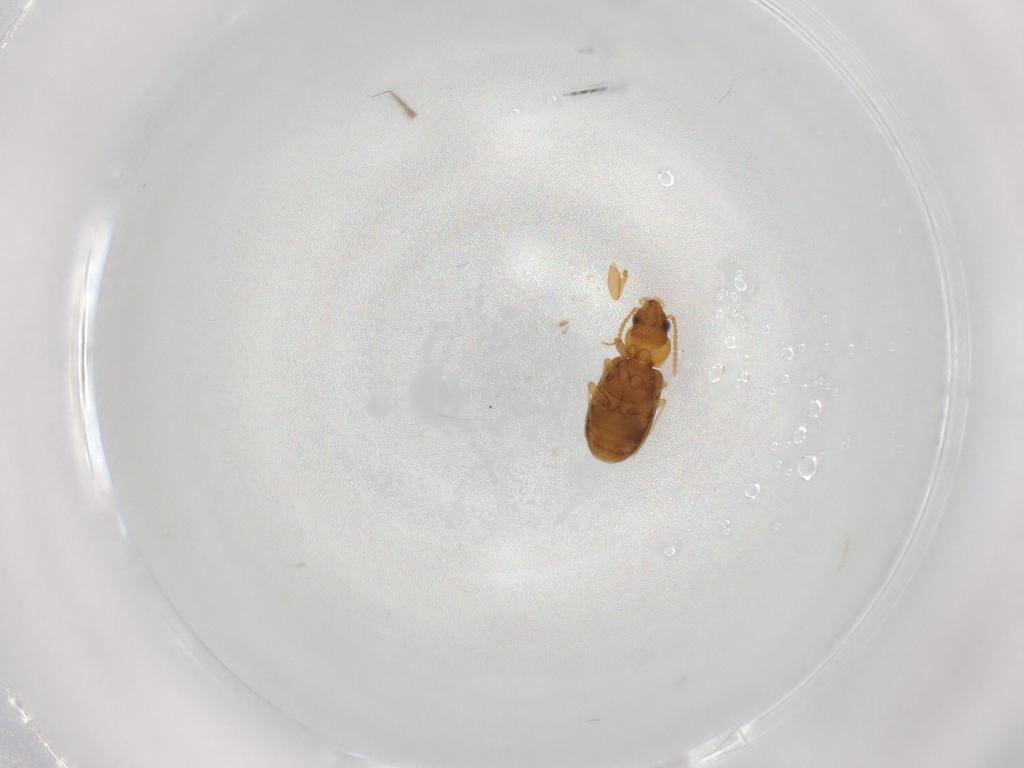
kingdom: Animalia
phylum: Arthropoda
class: Insecta
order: Coleoptera
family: Carabidae
